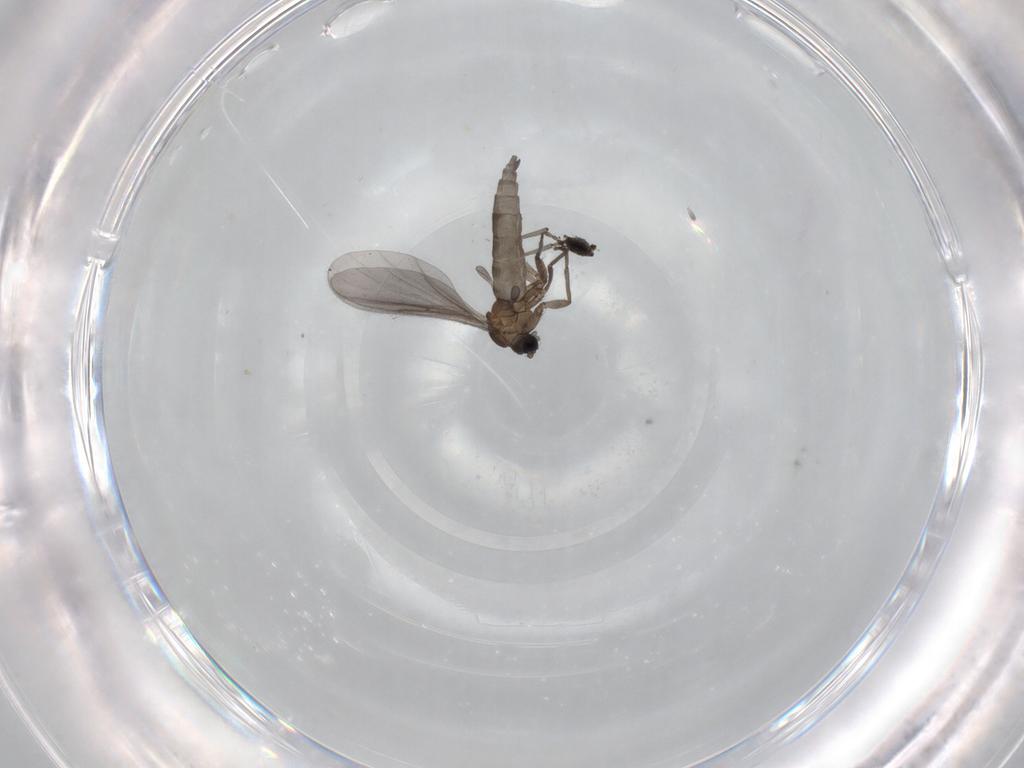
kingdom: Animalia
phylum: Arthropoda
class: Insecta
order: Diptera
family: Sciaridae
